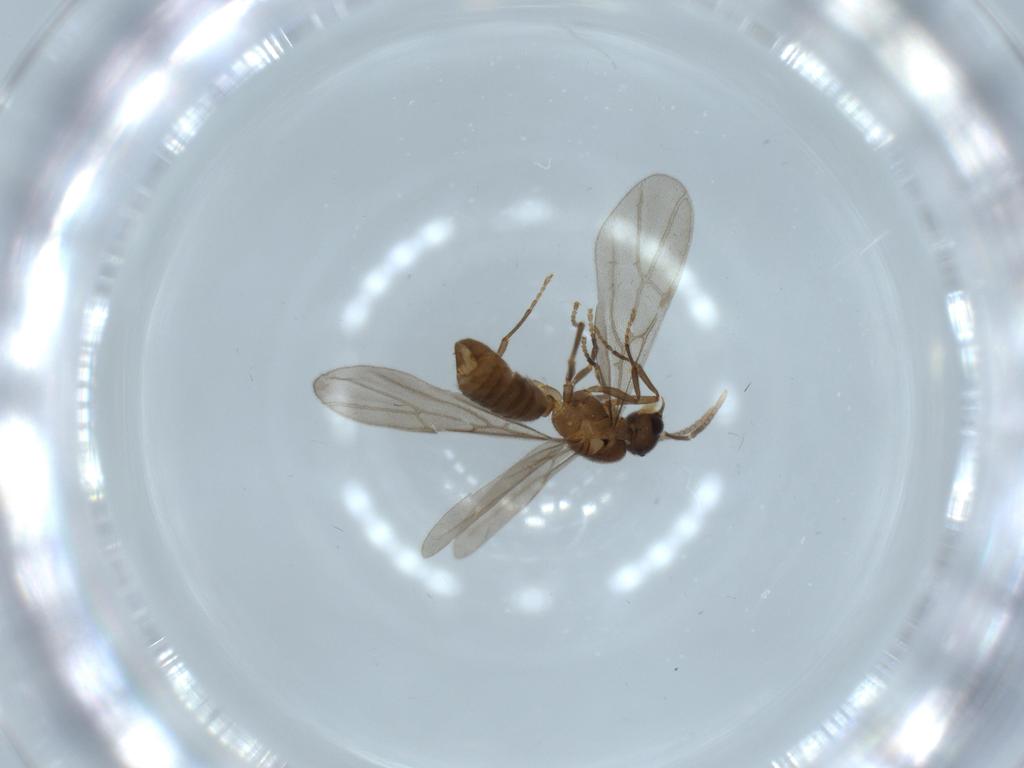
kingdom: Animalia
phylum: Arthropoda
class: Insecta
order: Hymenoptera
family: Formicidae
